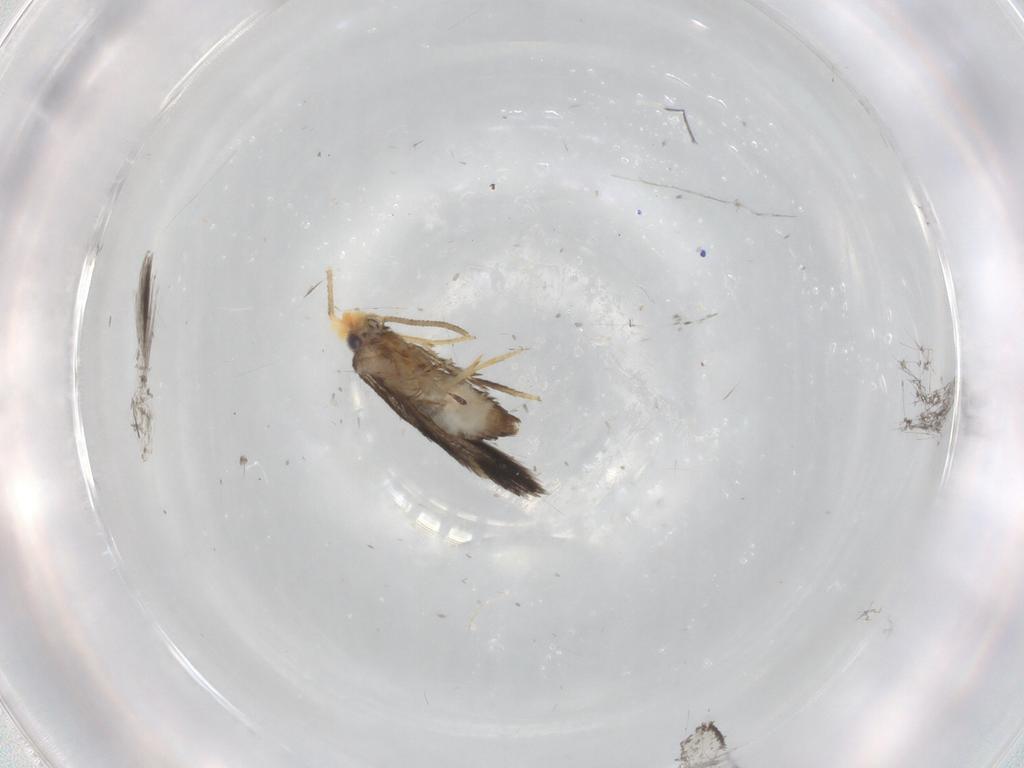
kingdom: Animalia
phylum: Arthropoda
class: Insecta
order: Lepidoptera
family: Nepticulidae
